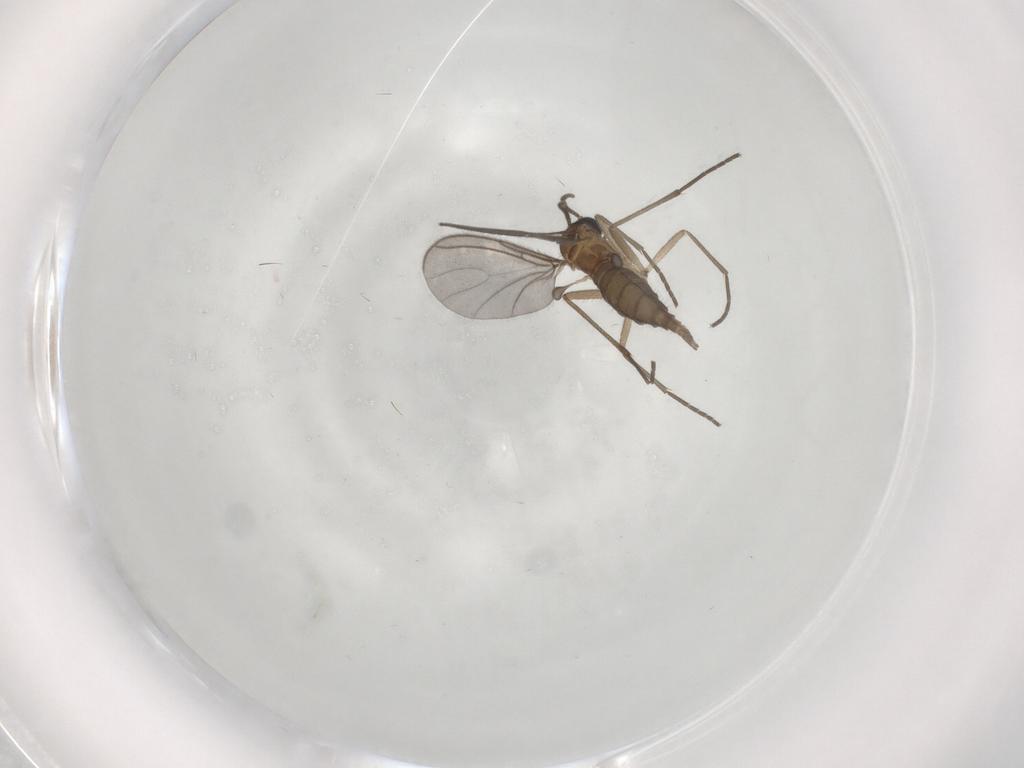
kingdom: Animalia
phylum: Arthropoda
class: Insecta
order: Diptera
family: Sciaridae
